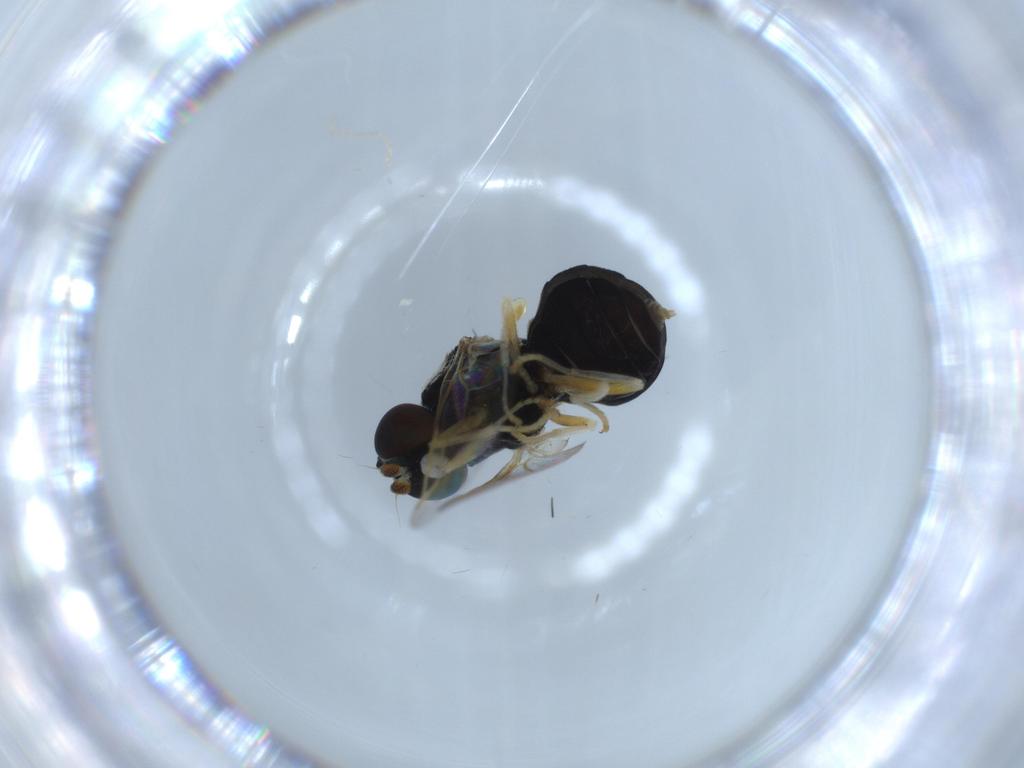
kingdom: Animalia
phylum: Arthropoda
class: Insecta
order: Diptera
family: Stratiomyidae
